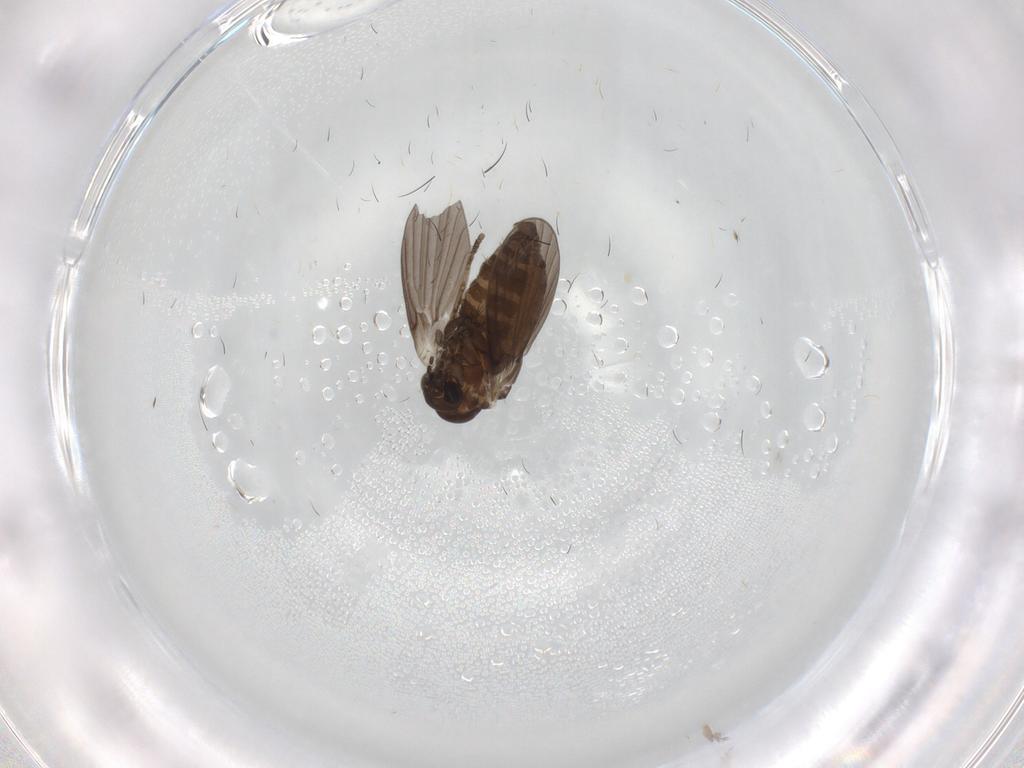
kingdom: Animalia
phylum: Arthropoda
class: Insecta
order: Diptera
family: Psychodidae
